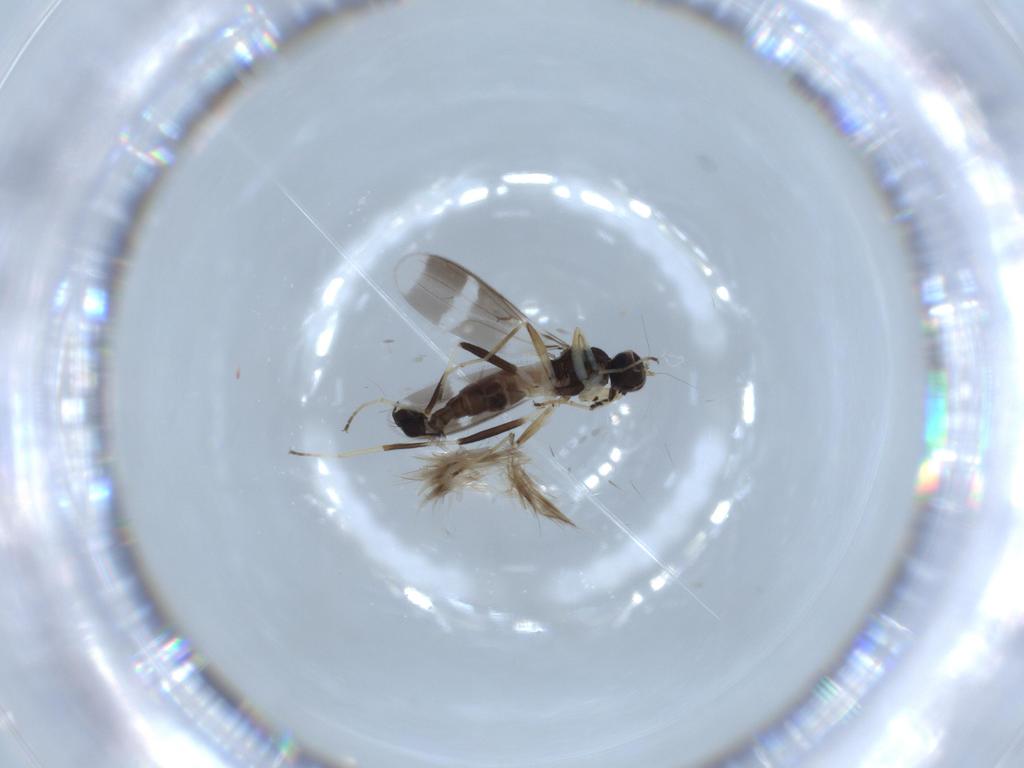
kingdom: Animalia
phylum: Arthropoda
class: Insecta
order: Diptera
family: Hybotidae
